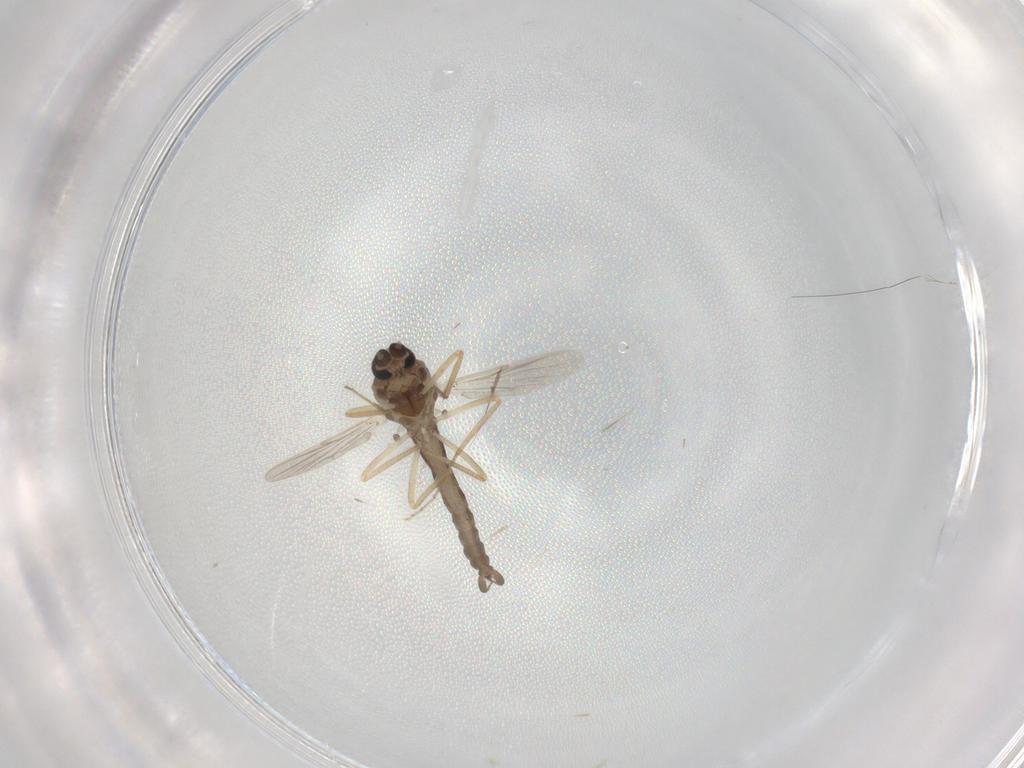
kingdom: Animalia
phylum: Arthropoda
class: Insecta
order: Diptera
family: Ceratopogonidae
